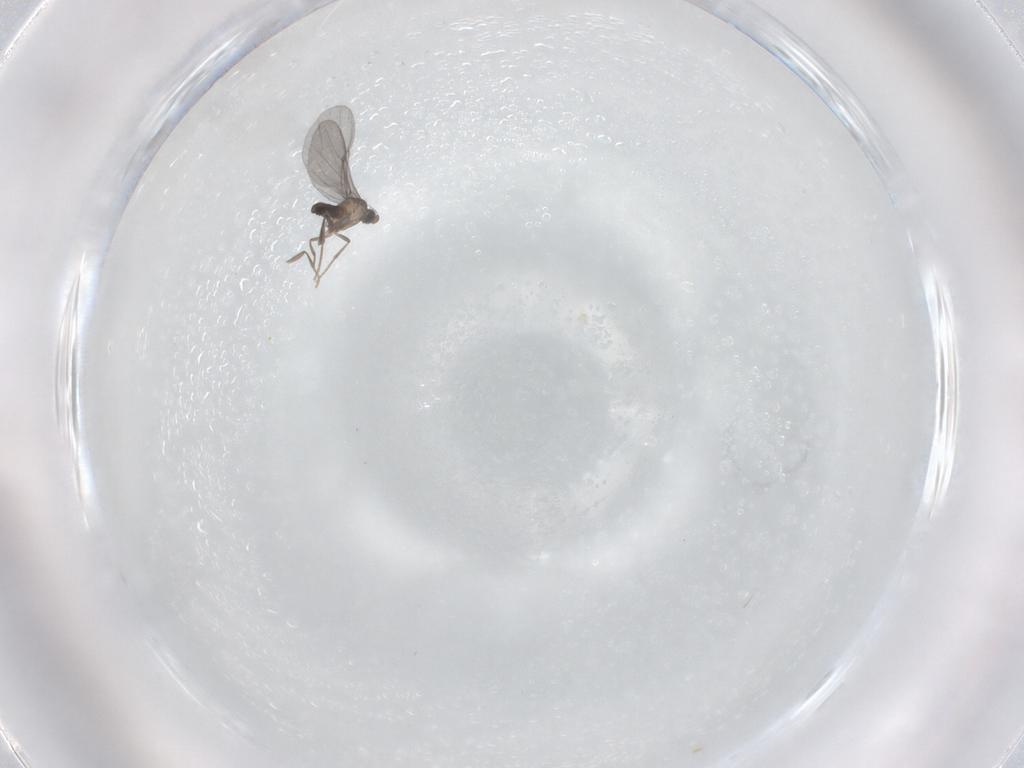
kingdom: Animalia
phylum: Arthropoda
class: Insecta
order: Diptera
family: Phoridae
